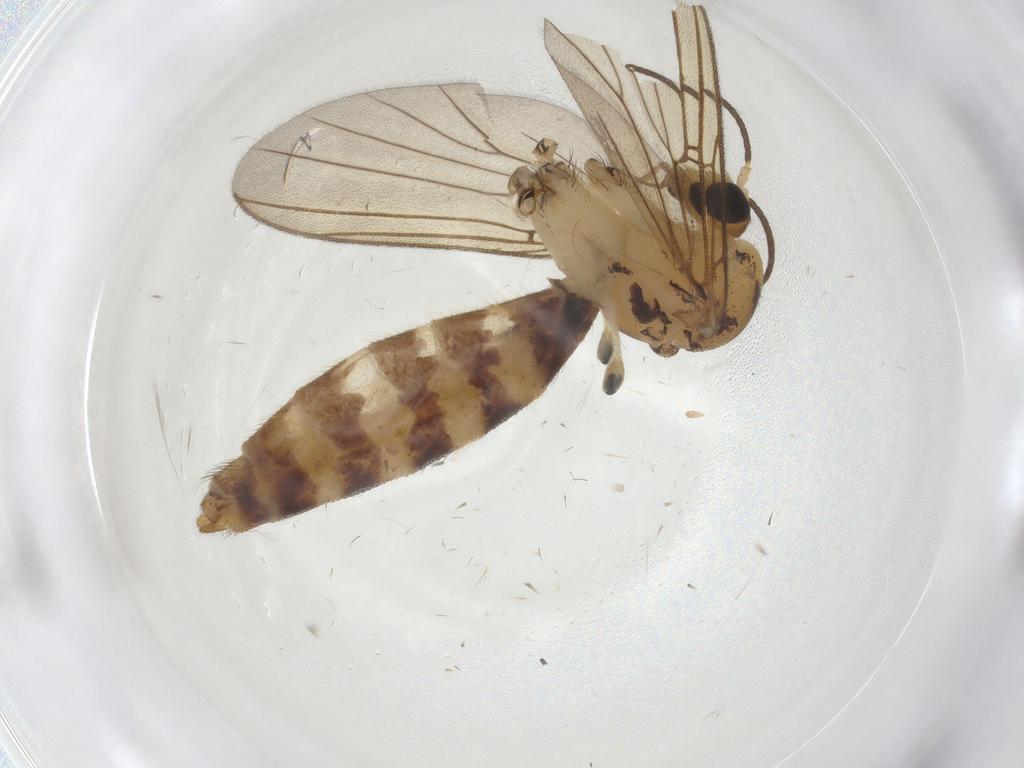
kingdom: Animalia
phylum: Arthropoda
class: Insecta
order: Diptera
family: Mycetophilidae
